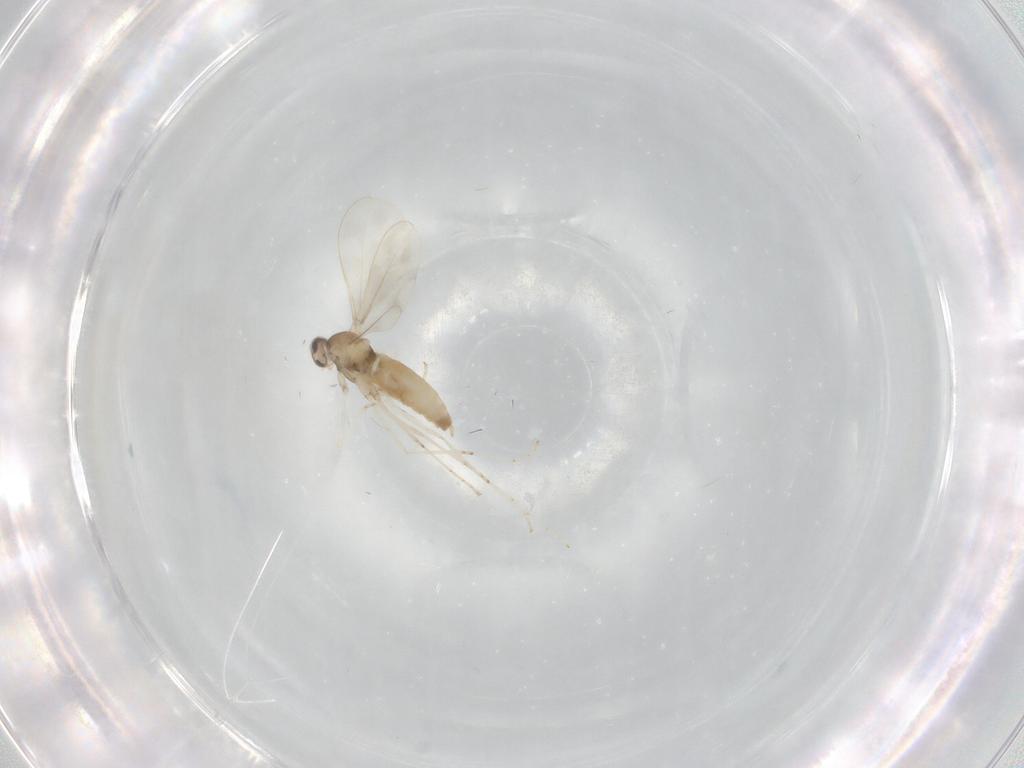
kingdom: Animalia
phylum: Arthropoda
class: Insecta
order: Diptera
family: Cecidomyiidae
